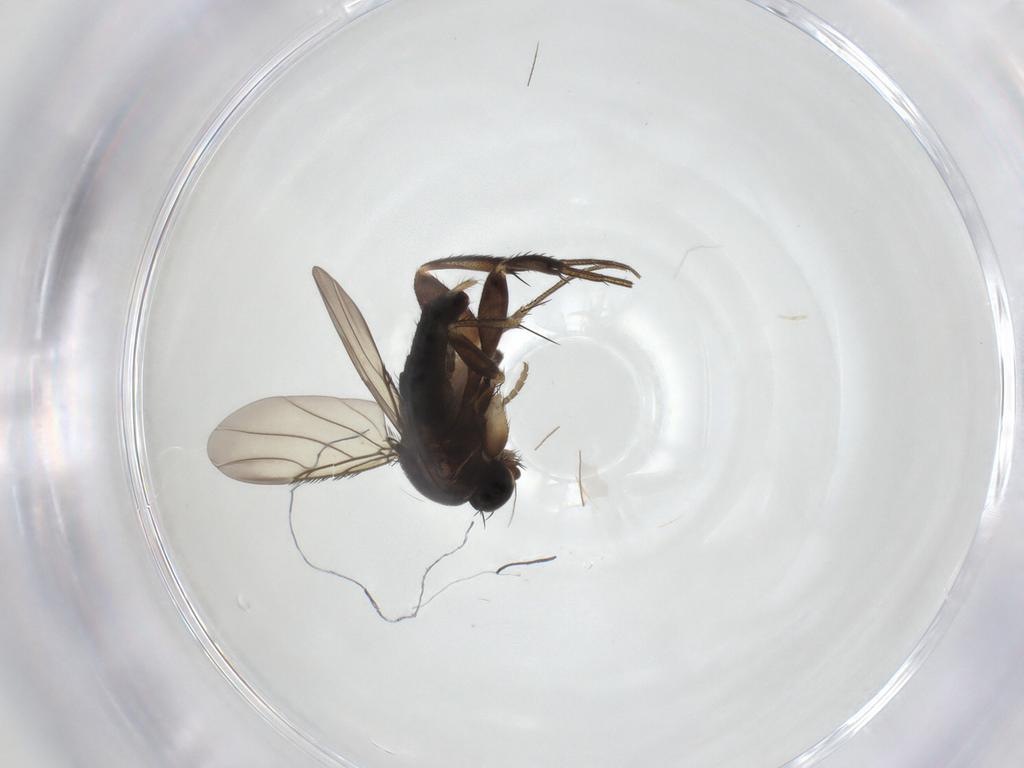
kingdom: Animalia
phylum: Arthropoda
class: Insecta
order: Diptera
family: Phoridae
